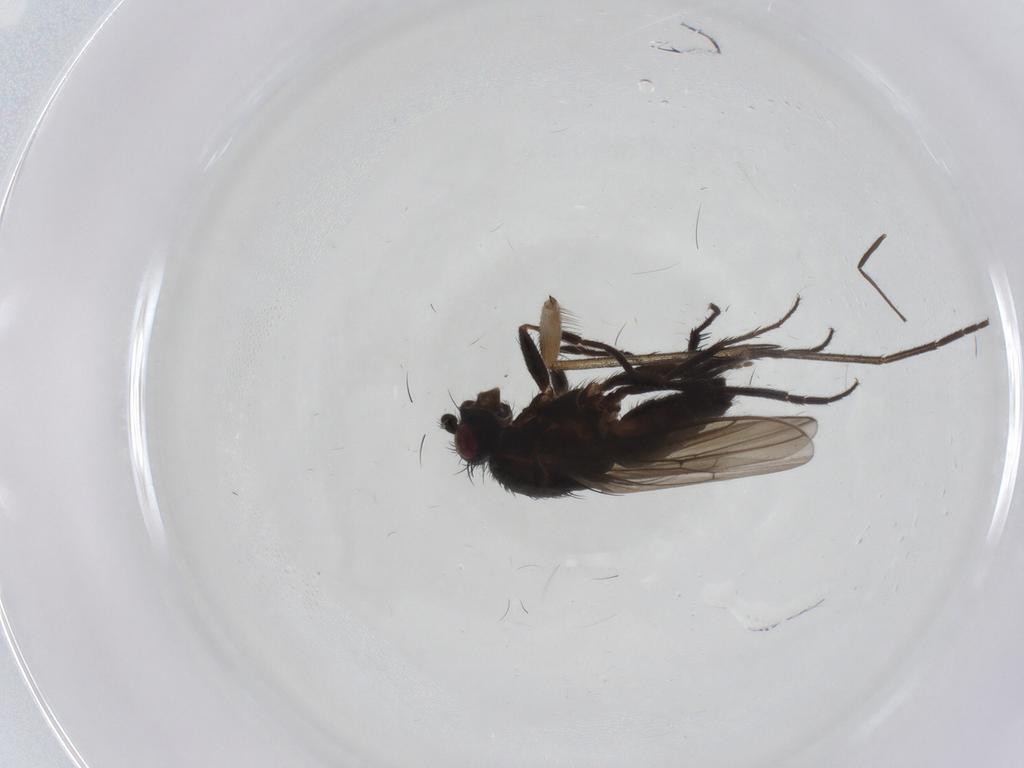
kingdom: Animalia
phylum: Arthropoda
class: Insecta
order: Diptera
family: Sphaeroceridae
